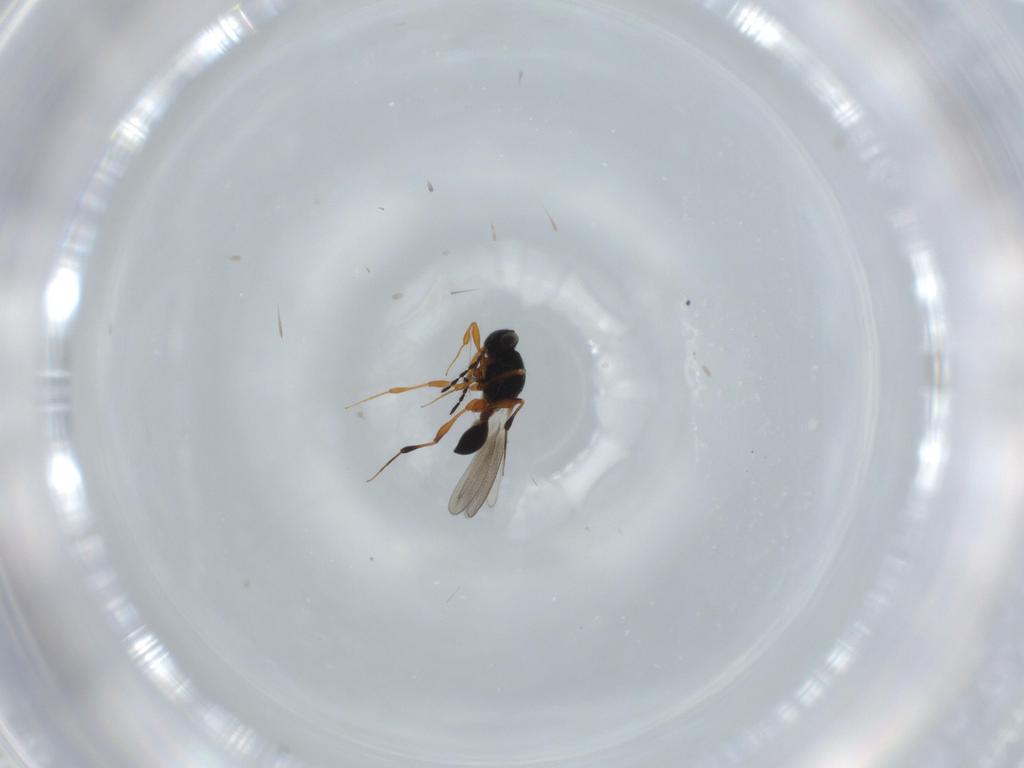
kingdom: Animalia
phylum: Arthropoda
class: Insecta
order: Hymenoptera
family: Platygastridae
